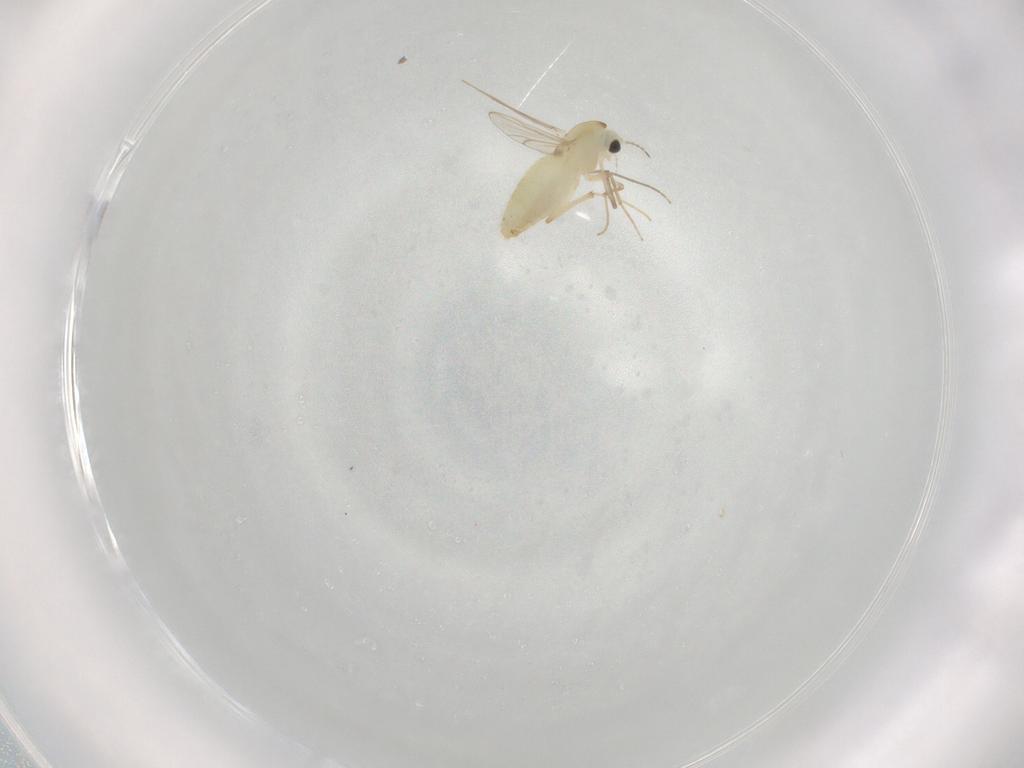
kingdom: Animalia
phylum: Arthropoda
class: Insecta
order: Diptera
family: Chironomidae
